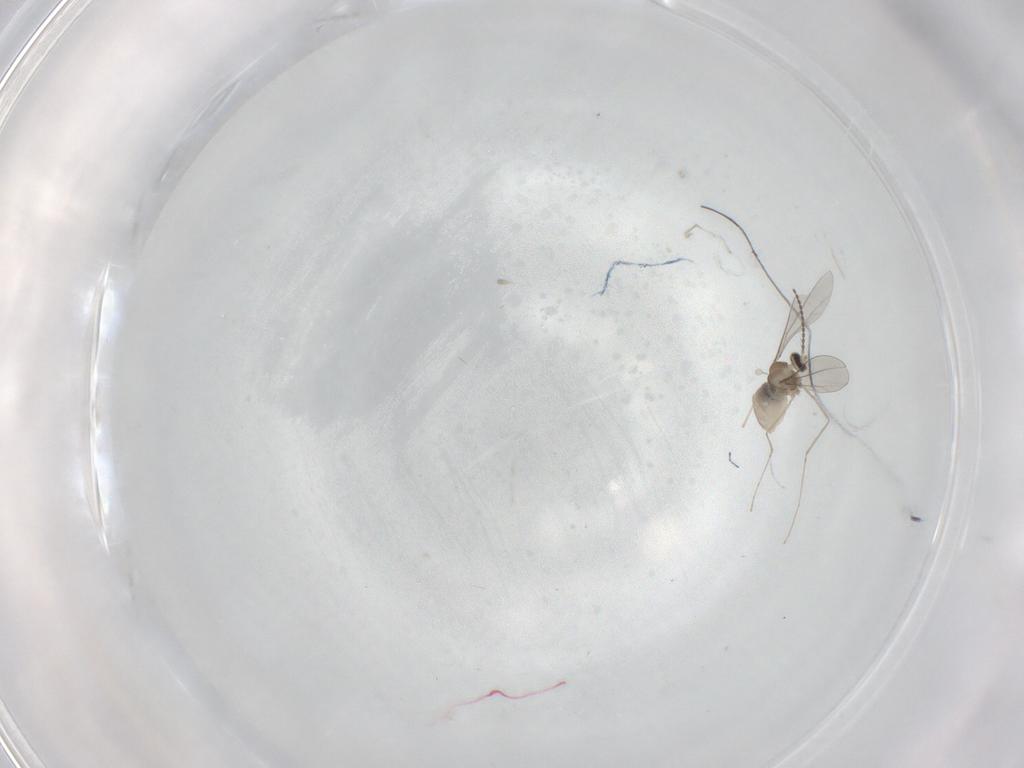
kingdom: Animalia
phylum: Arthropoda
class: Insecta
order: Diptera
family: Cecidomyiidae
